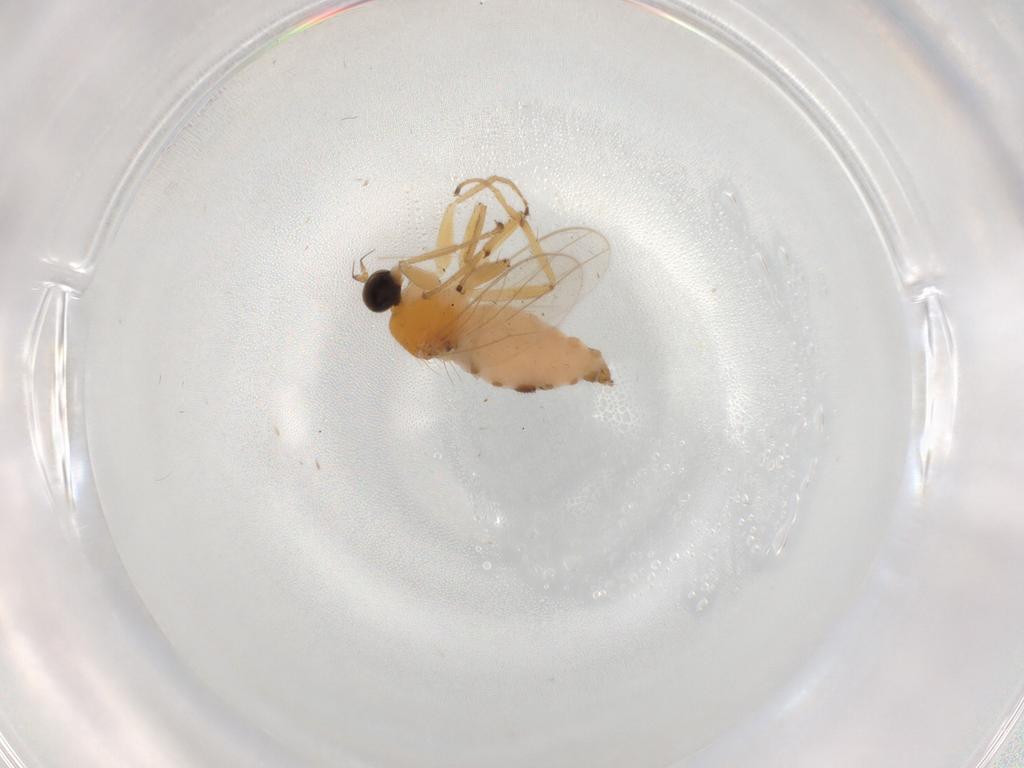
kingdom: Animalia
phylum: Arthropoda
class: Insecta
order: Diptera
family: Hybotidae
